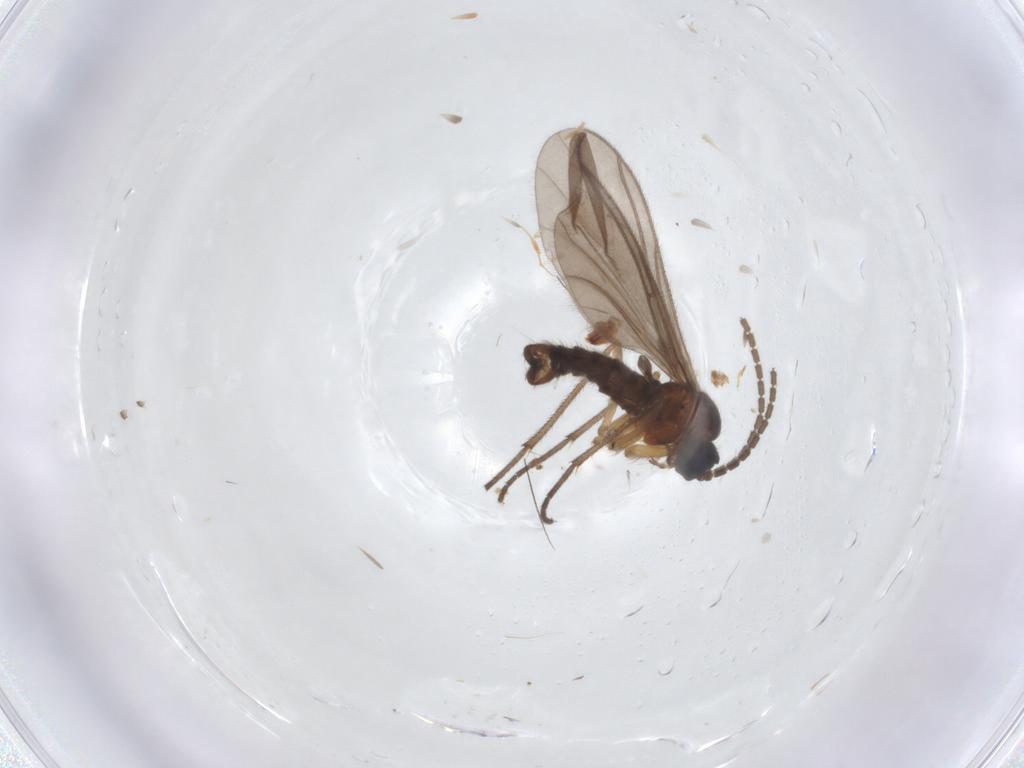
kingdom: Animalia
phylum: Arthropoda
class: Insecta
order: Diptera
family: Sciaridae
